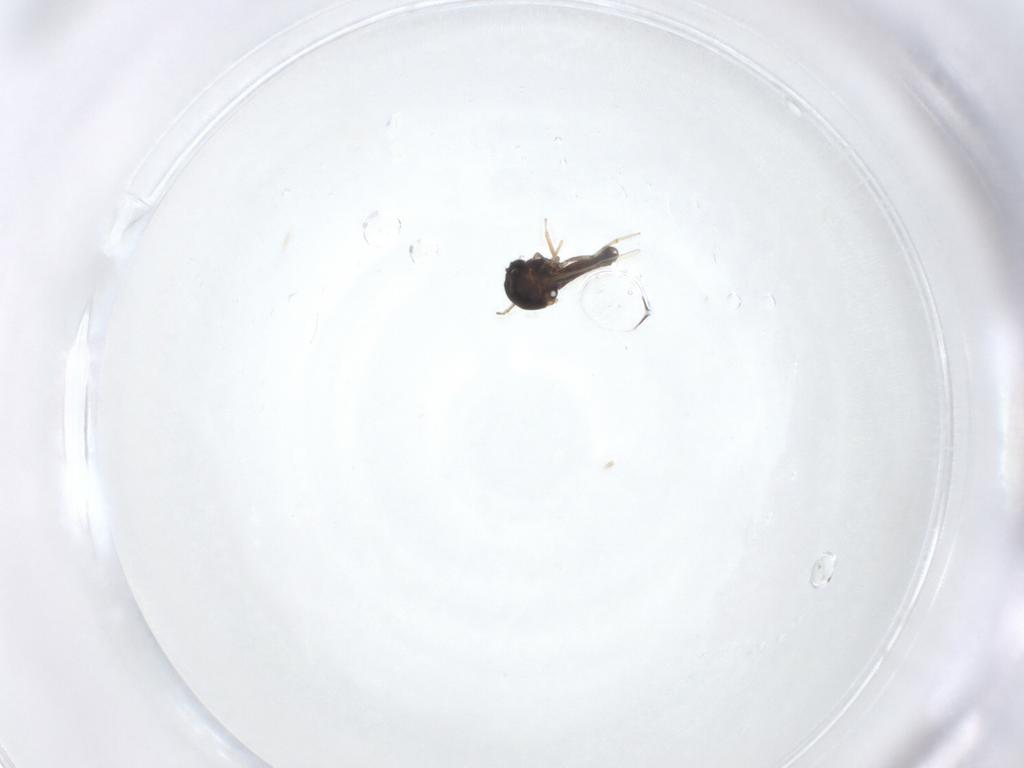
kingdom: Animalia
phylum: Arthropoda
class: Insecta
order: Diptera
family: Ceratopogonidae
